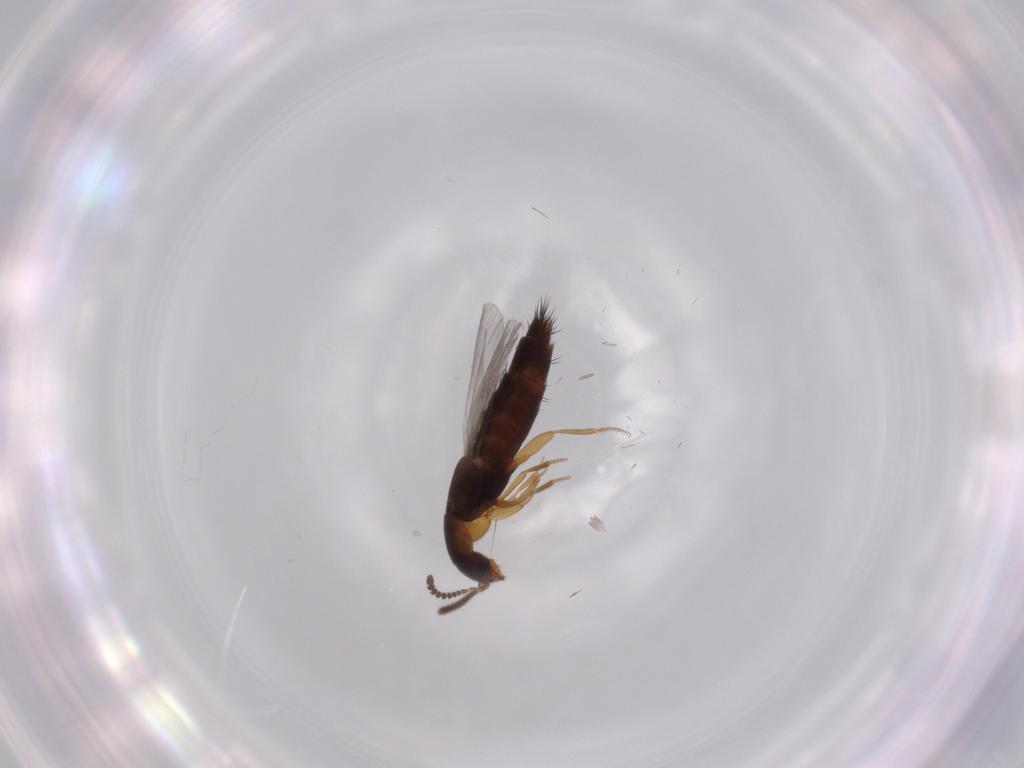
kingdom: Animalia
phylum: Arthropoda
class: Insecta
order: Coleoptera
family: Staphylinidae
